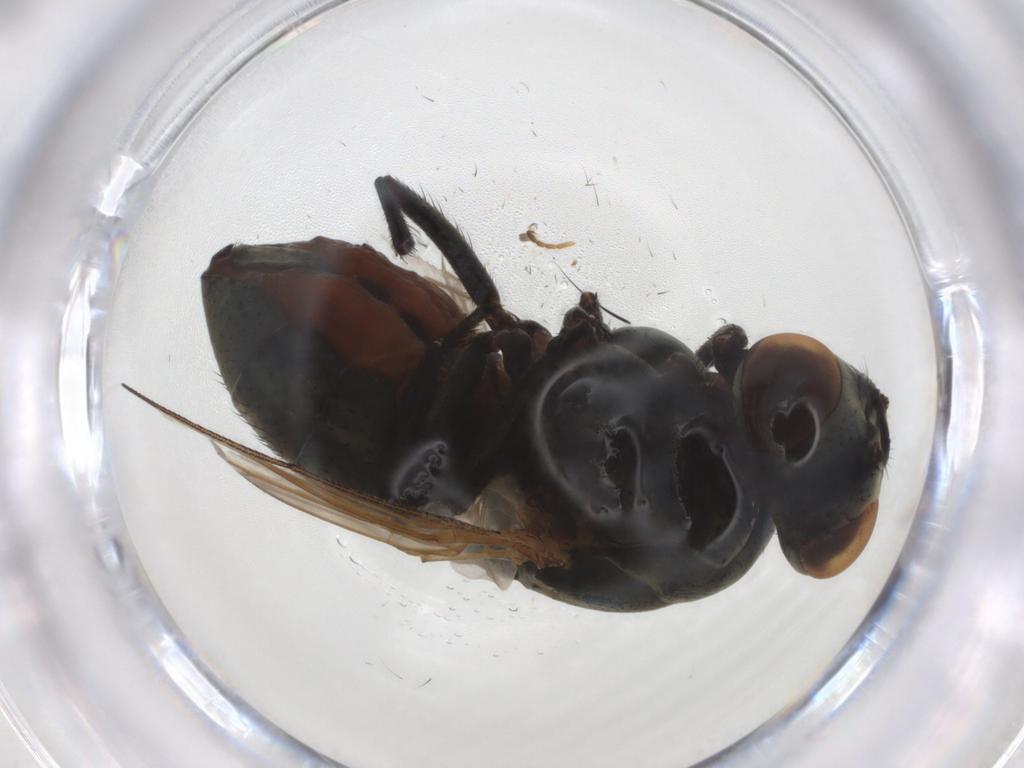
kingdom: Animalia
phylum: Arthropoda
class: Insecta
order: Diptera
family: Muscidae
